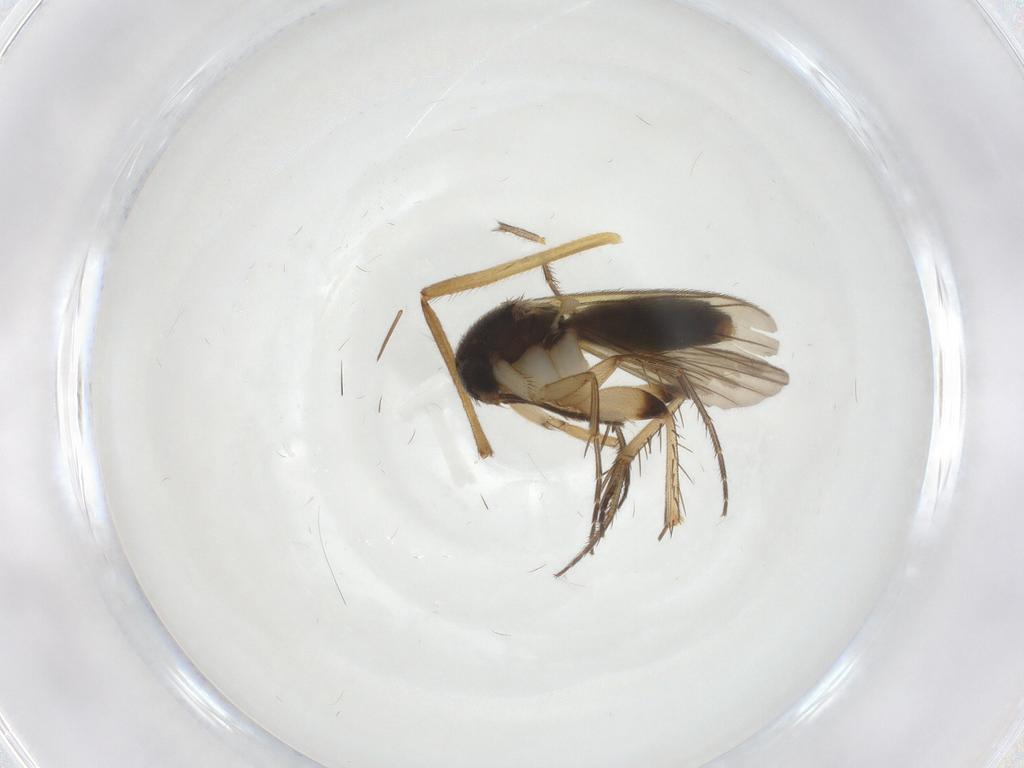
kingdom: Animalia
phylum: Arthropoda
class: Insecta
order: Diptera
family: Mycetophilidae
